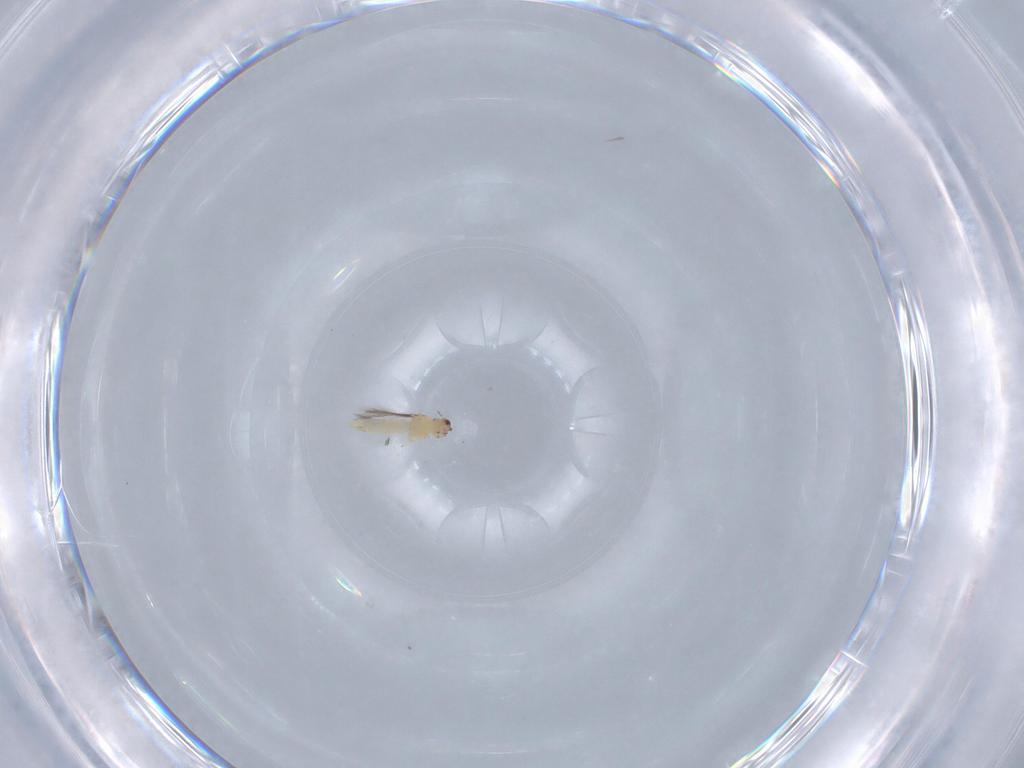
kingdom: Animalia
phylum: Arthropoda
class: Insecta
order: Thysanoptera
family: Thripidae
